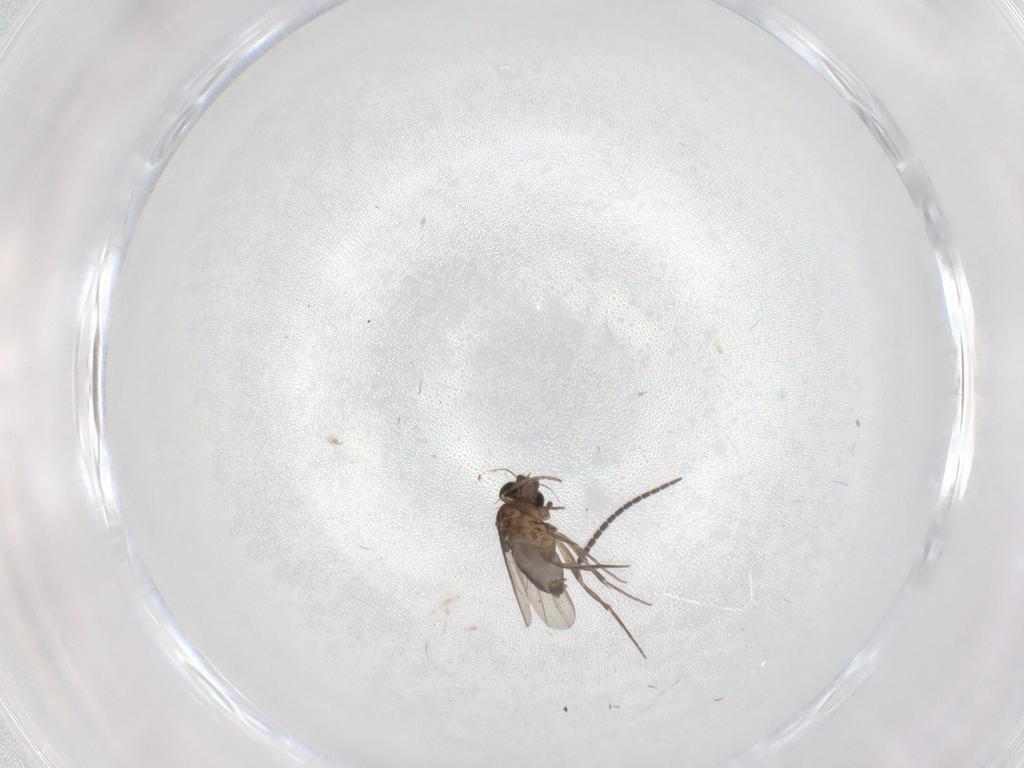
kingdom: Animalia
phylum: Arthropoda
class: Insecta
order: Diptera
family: Phoridae
